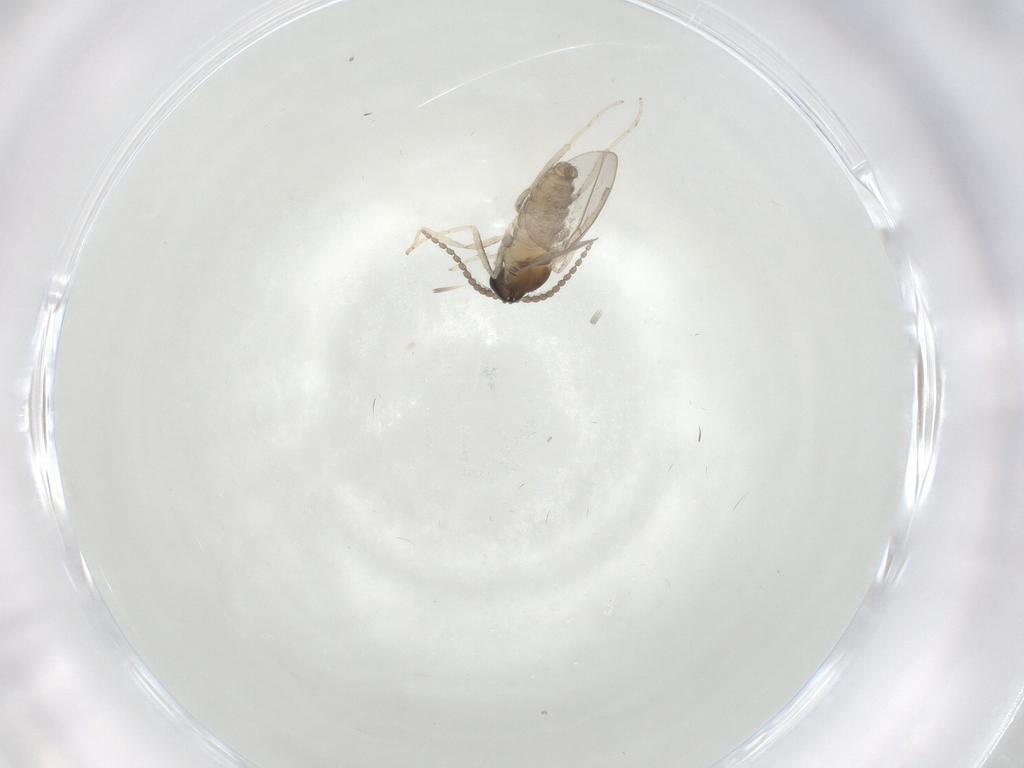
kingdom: Animalia
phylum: Arthropoda
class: Insecta
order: Diptera
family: Cecidomyiidae
